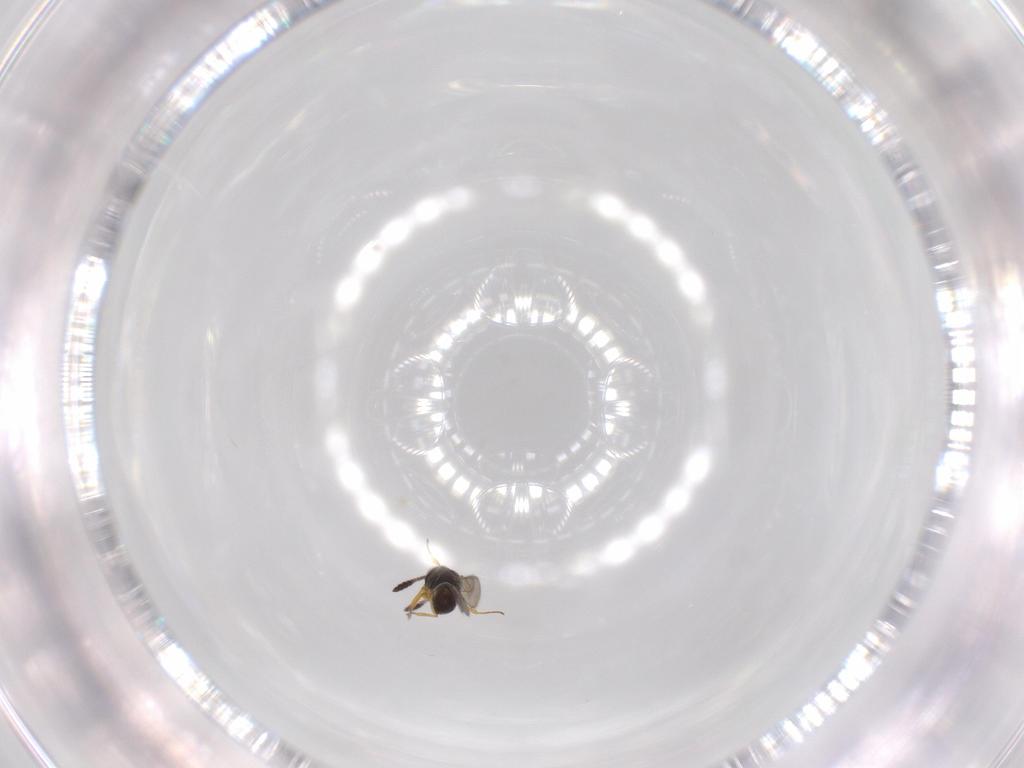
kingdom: Animalia
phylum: Arthropoda
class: Insecta
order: Hymenoptera
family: Scelionidae
